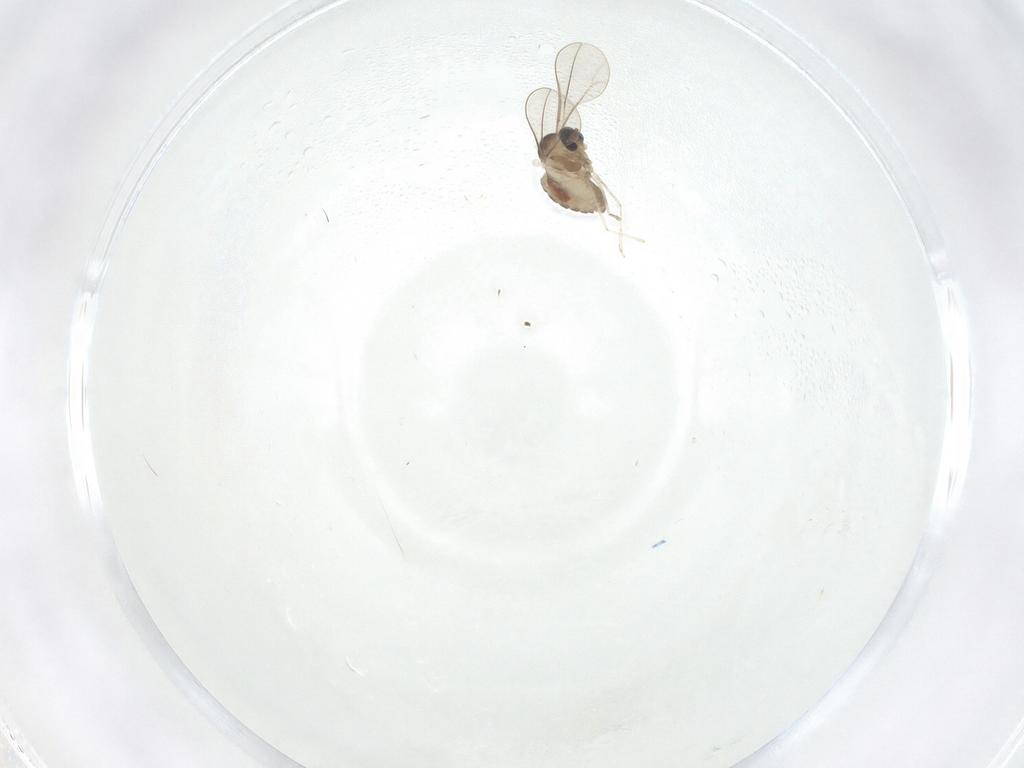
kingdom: Animalia
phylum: Arthropoda
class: Insecta
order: Diptera
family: Cecidomyiidae
